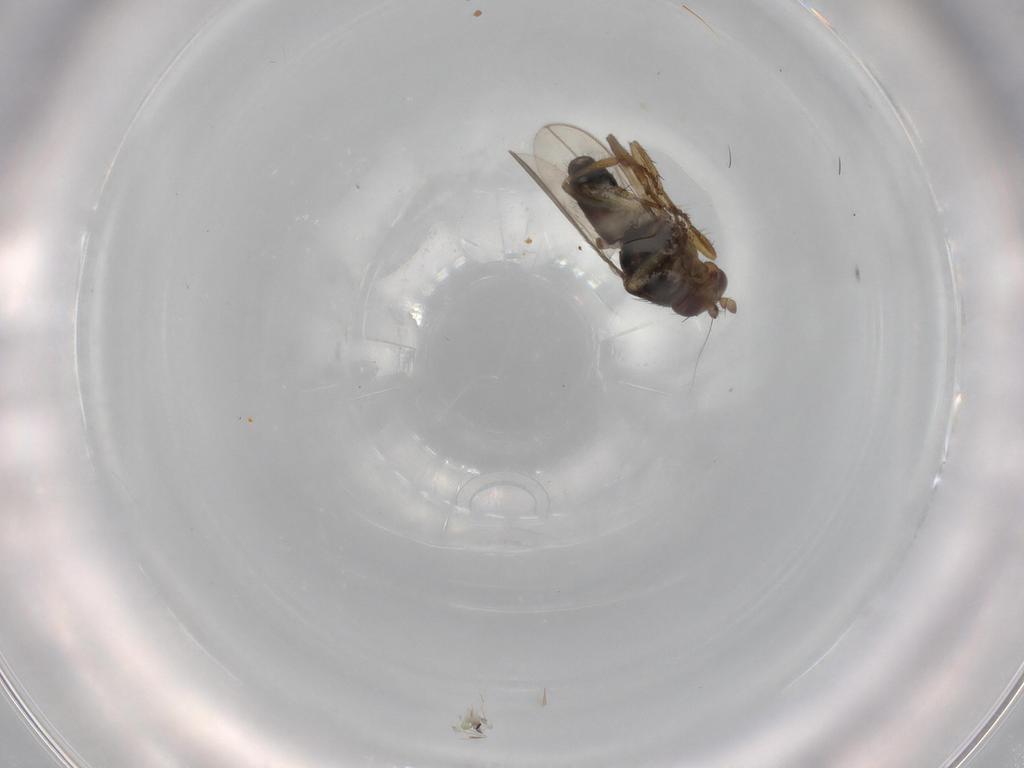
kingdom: Animalia
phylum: Arthropoda
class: Insecta
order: Diptera
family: Sphaeroceridae
